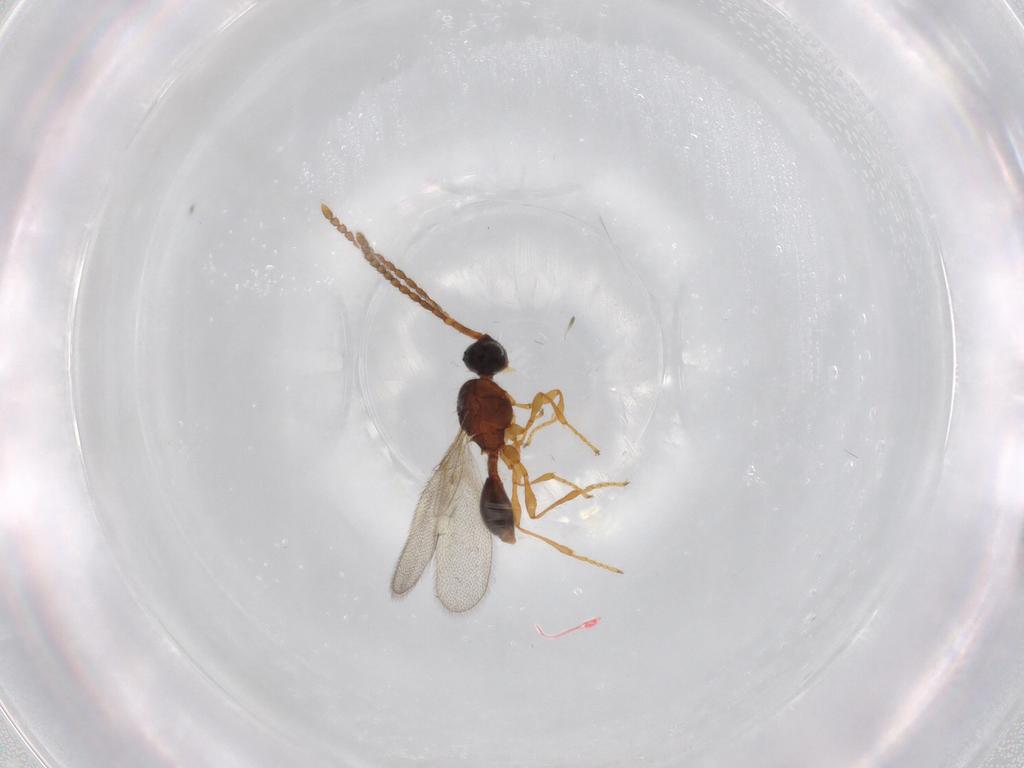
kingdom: Animalia
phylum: Arthropoda
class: Insecta
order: Hymenoptera
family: Diapriidae
